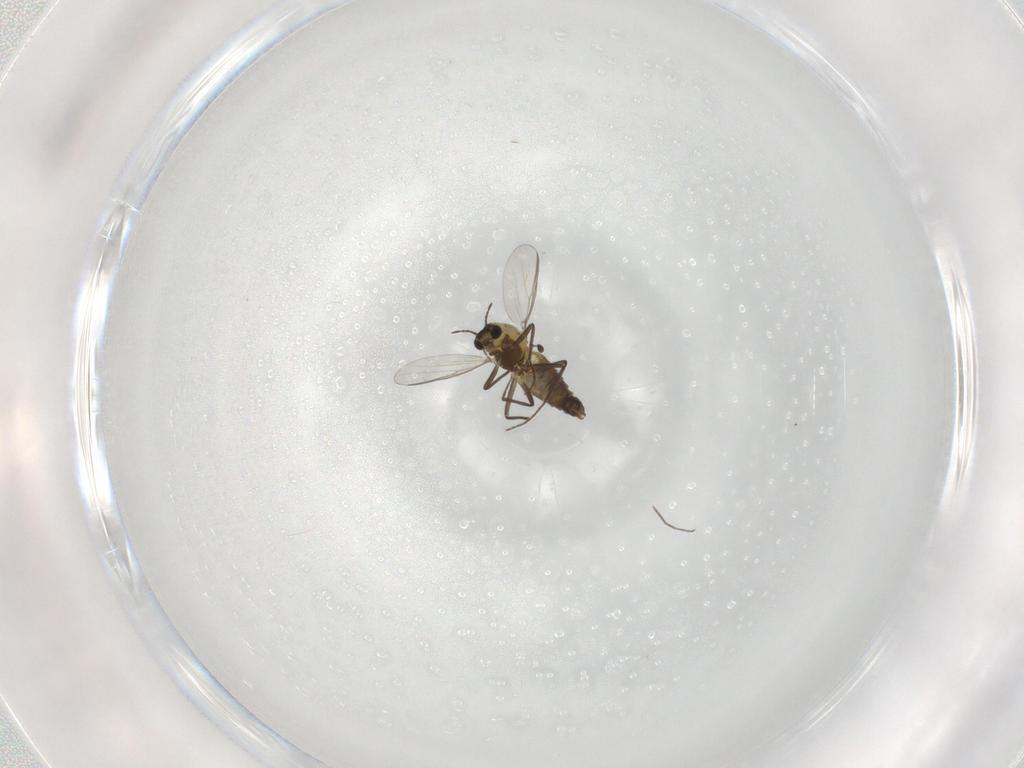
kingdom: Animalia
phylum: Arthropoda
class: Insecta
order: Diptera
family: Chironomidae
